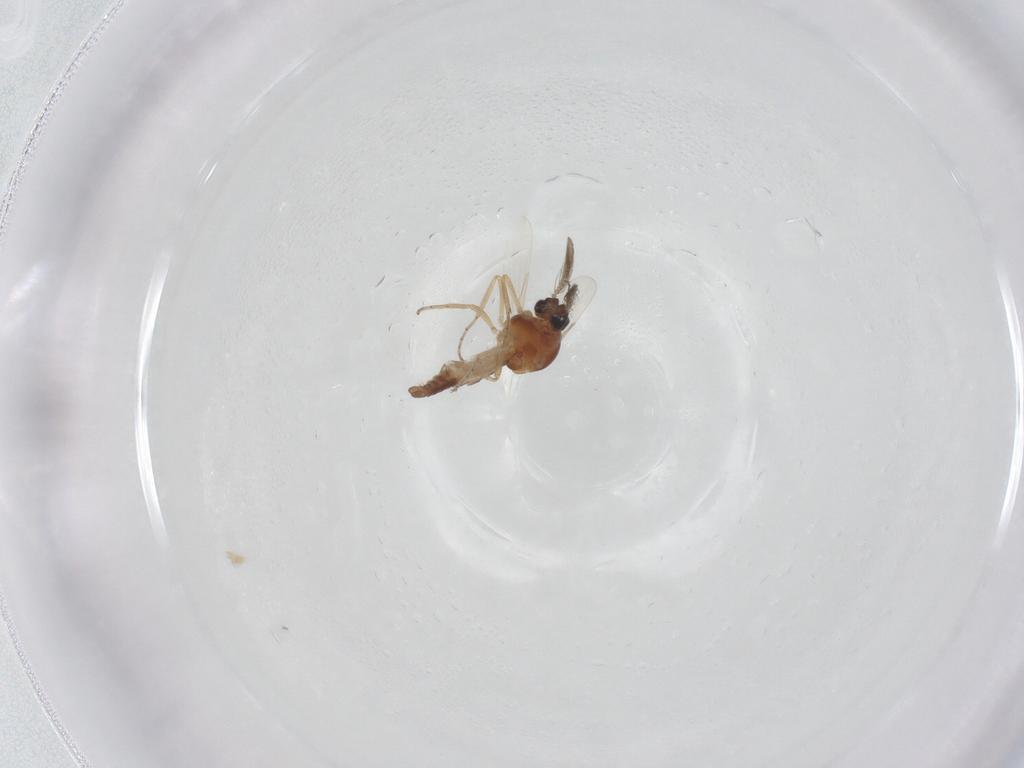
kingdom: Animalia
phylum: Arthropoda
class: Insecta
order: Diptera
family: Ceratopogonidae
